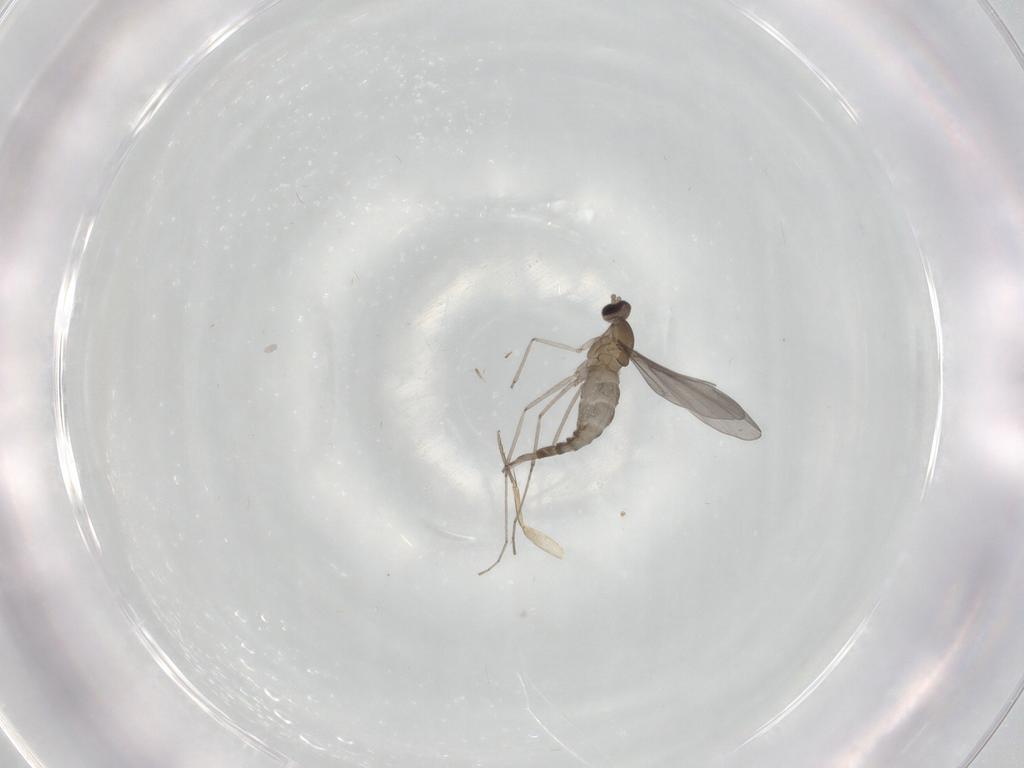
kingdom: Animalia
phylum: Arthropoda
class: Insecta
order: Diptera
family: Cecidomyiidae
